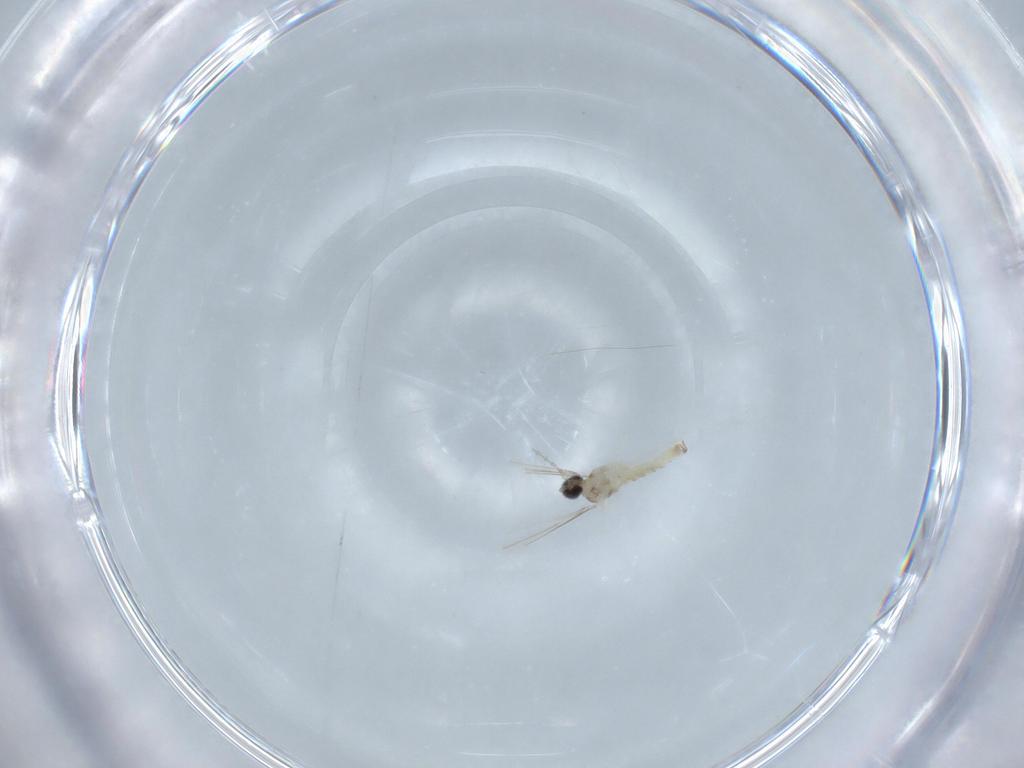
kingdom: Animalia
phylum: Arthropoda
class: Insecta
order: Diptera
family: Cecidomyiidae
